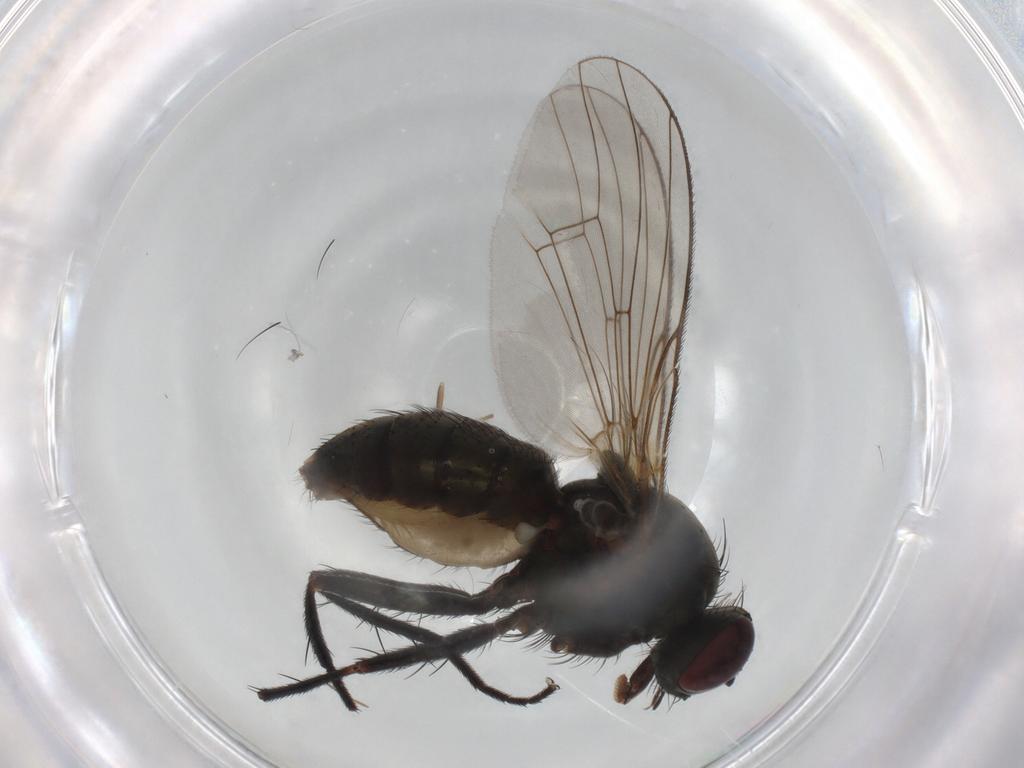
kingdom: Animalia
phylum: Arthropoda
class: Insecta
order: Diptera
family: Muscidae
